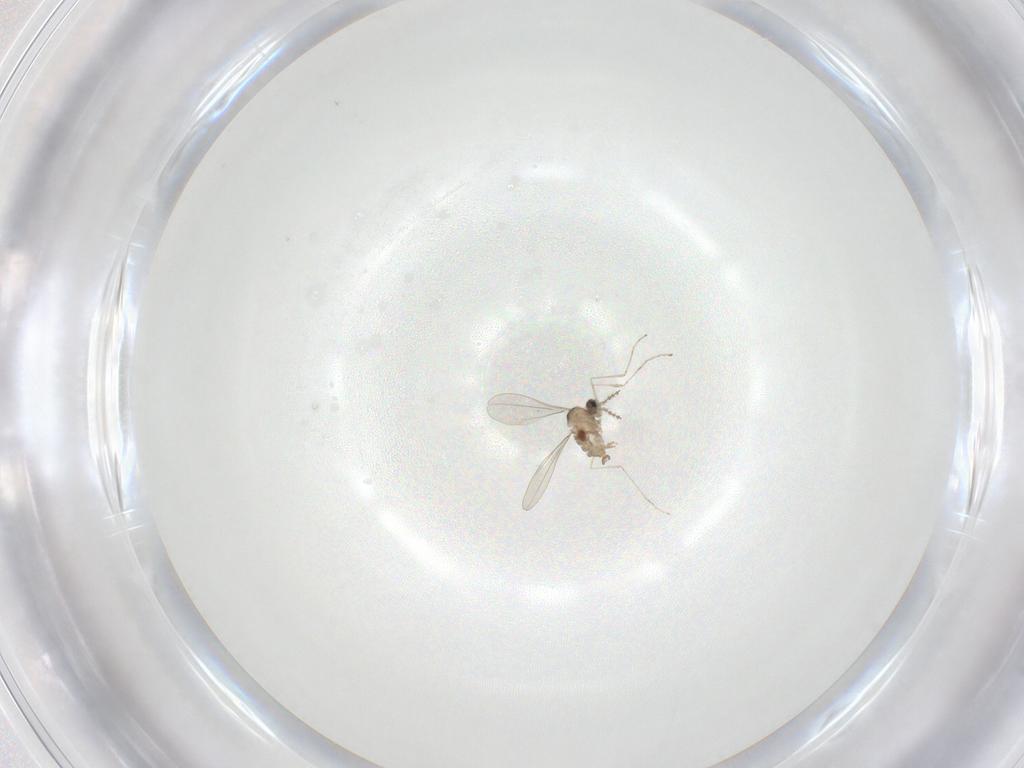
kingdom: Animalia
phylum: Arthropoda
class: Insecta
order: Diptera
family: Cecidomyiidae
